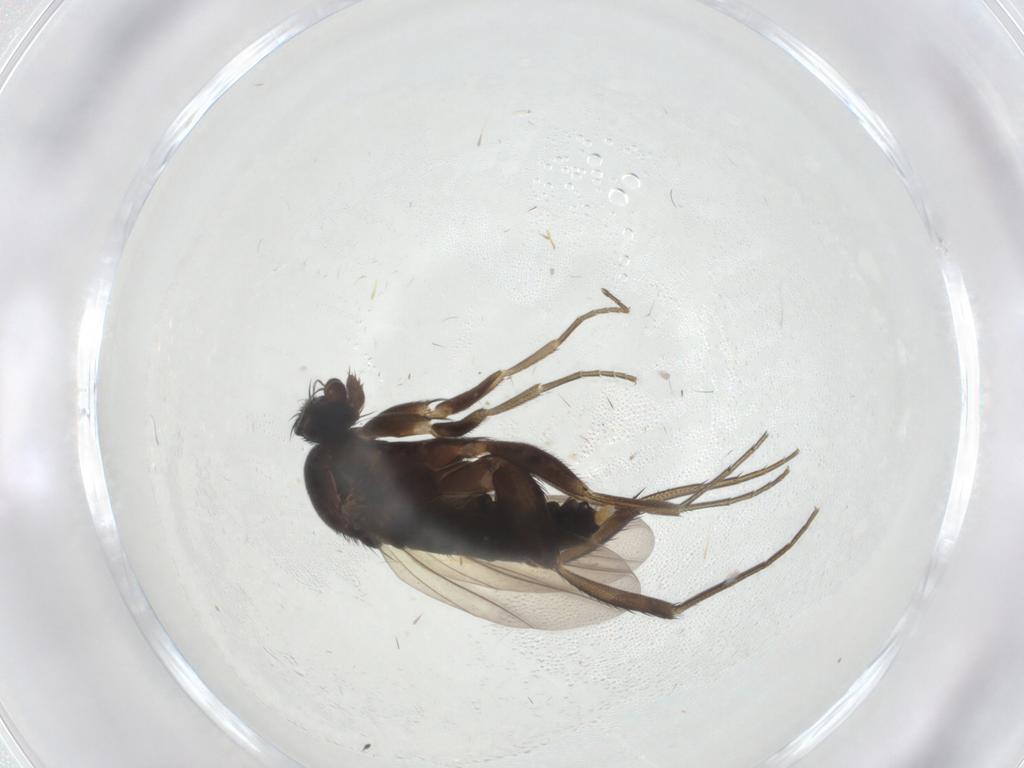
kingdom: Animalia
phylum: Arthropoda
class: Insecta
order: Diptera
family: Phoridae
